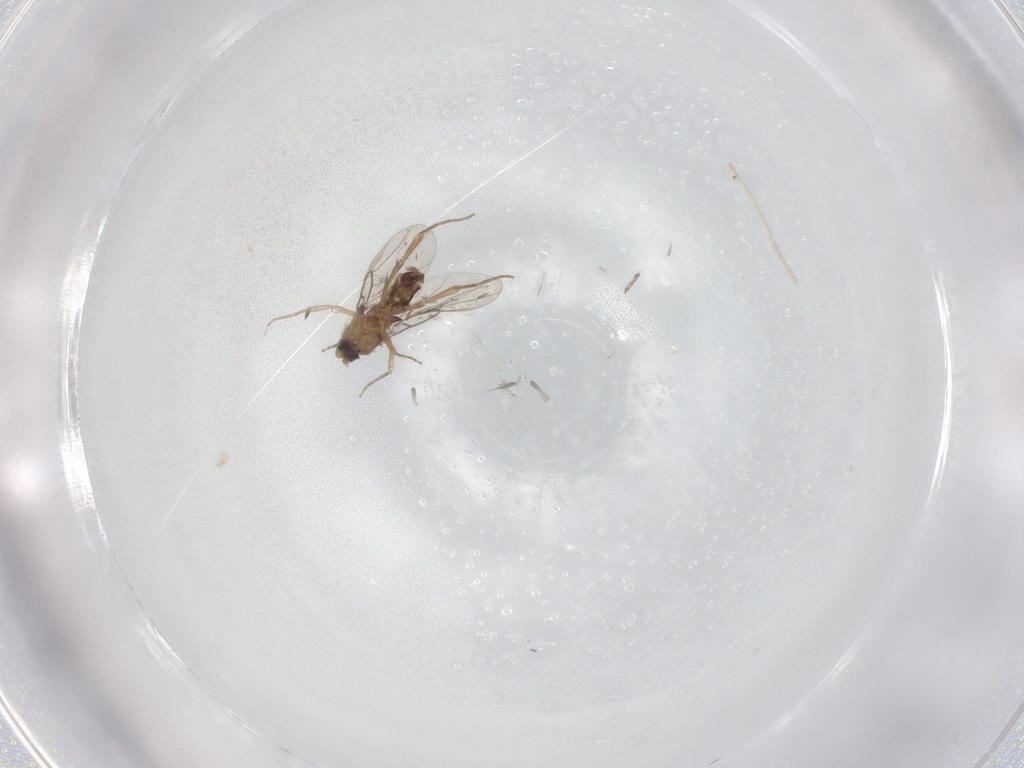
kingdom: Animalia
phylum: Arthropoda
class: Insecta
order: Diptera
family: Phoridae
